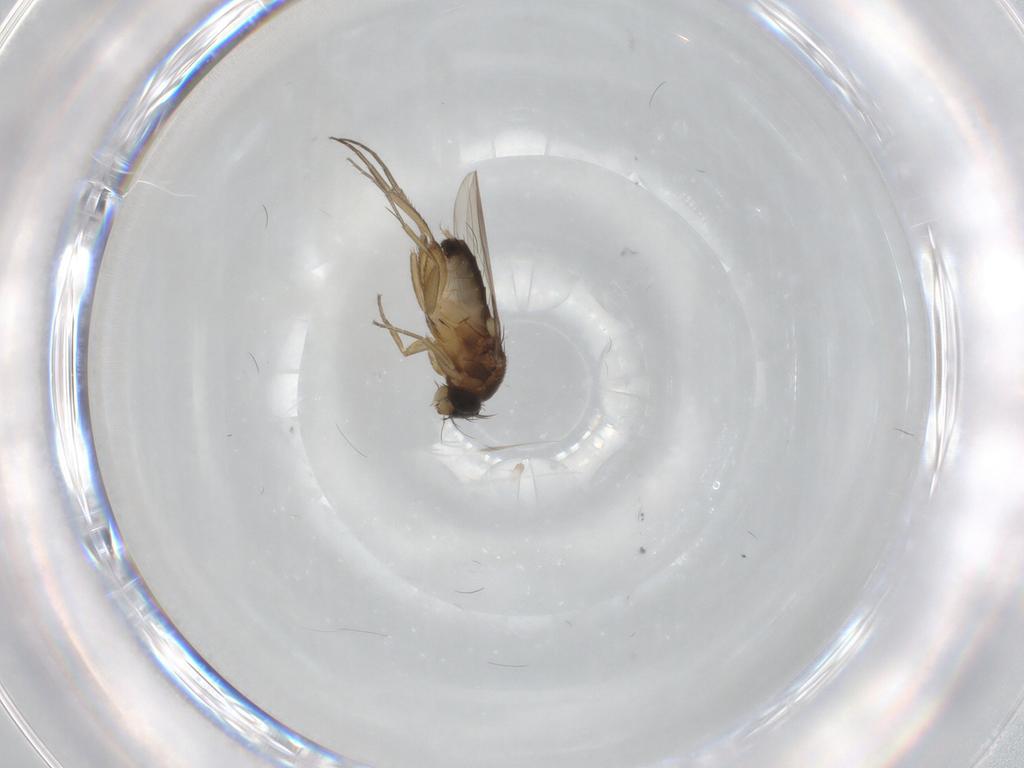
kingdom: Animalia
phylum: Arthropoda
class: Insecta
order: Diptera
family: Phoridae
